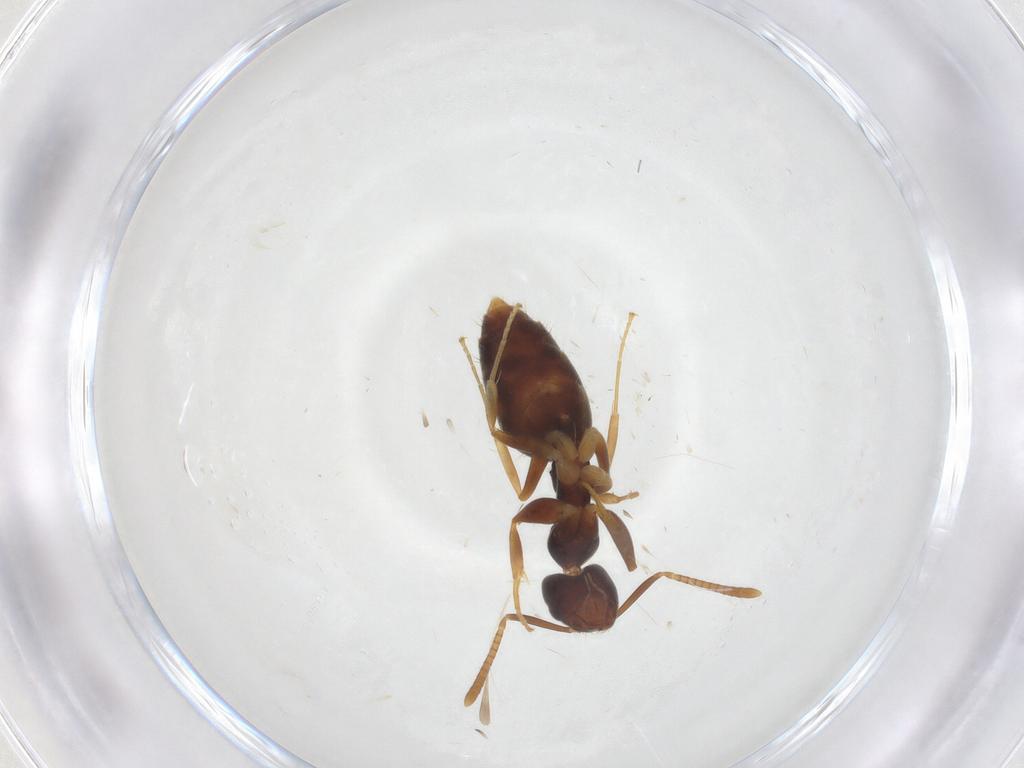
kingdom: Animalia
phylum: Arthropoda
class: Insecta
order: Hymenoptera
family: Formicidae
